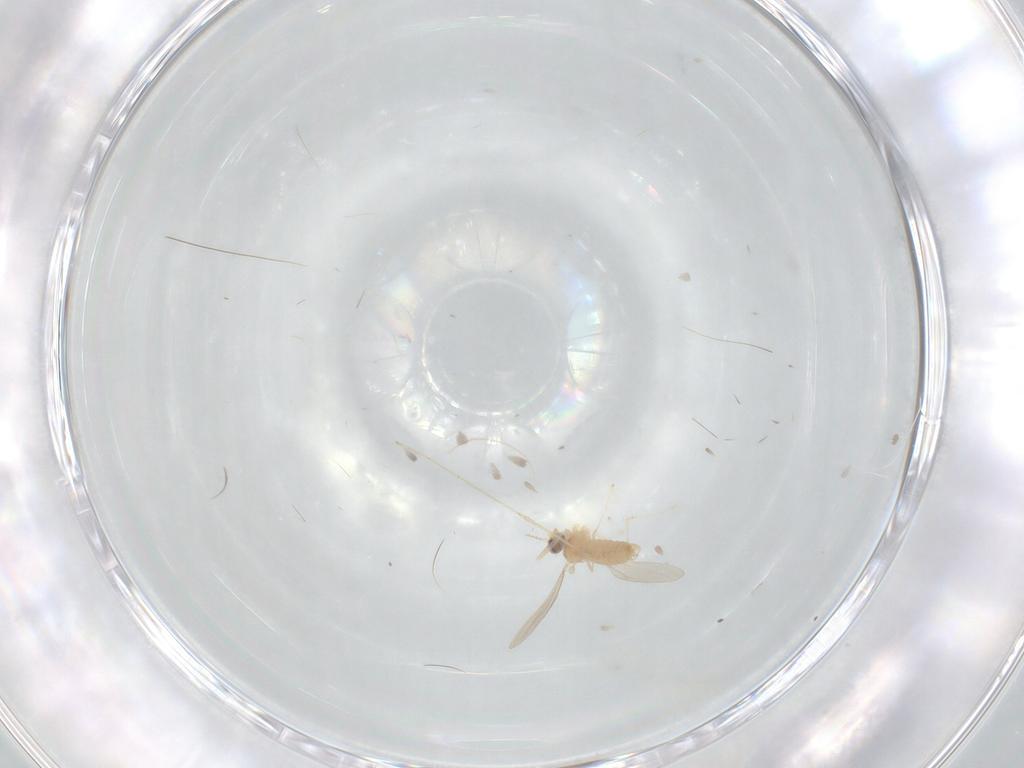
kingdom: Animalia
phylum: Arthropoda
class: Insecta
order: Diptera
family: Cecidomyiidae
